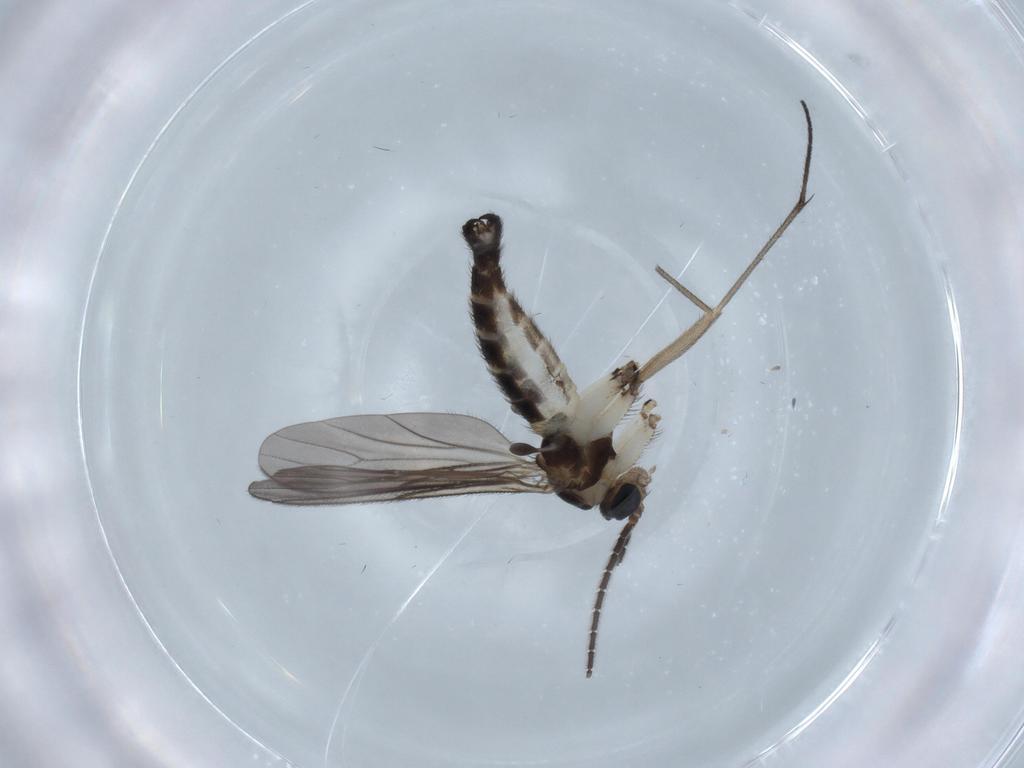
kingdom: Animalia
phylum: Arthropoda
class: Insecta
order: Diptera
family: Sciaridae
